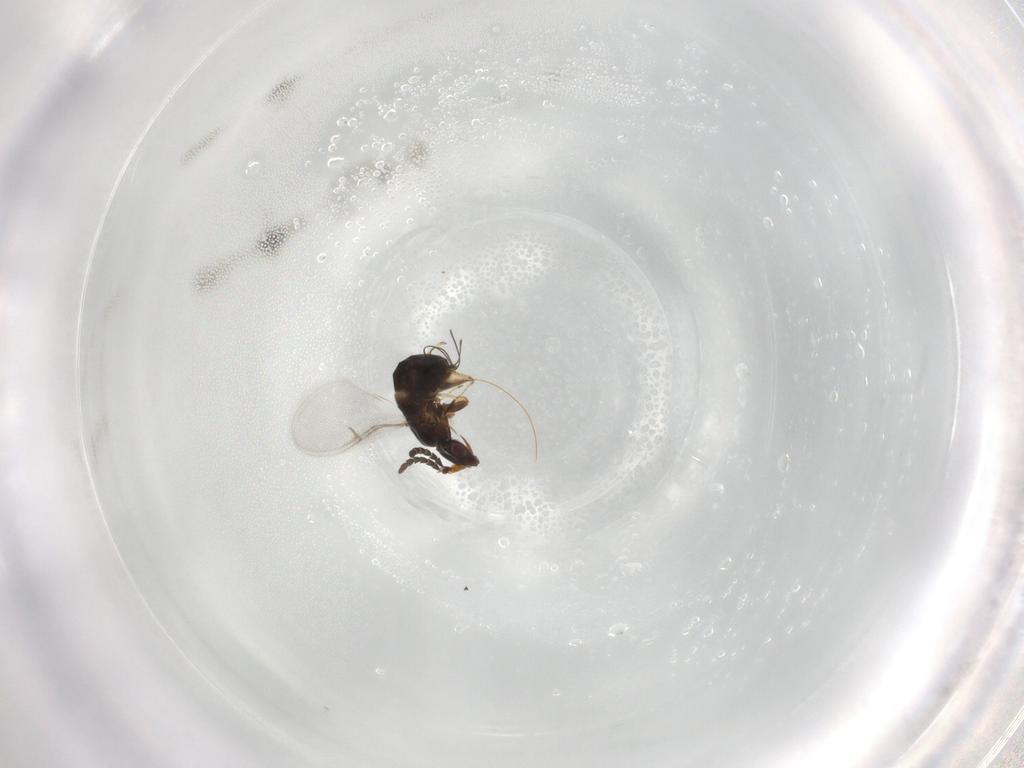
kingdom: Animalia
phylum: Arthropoda
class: Insecta
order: Hymenoptera
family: Agaonidae
